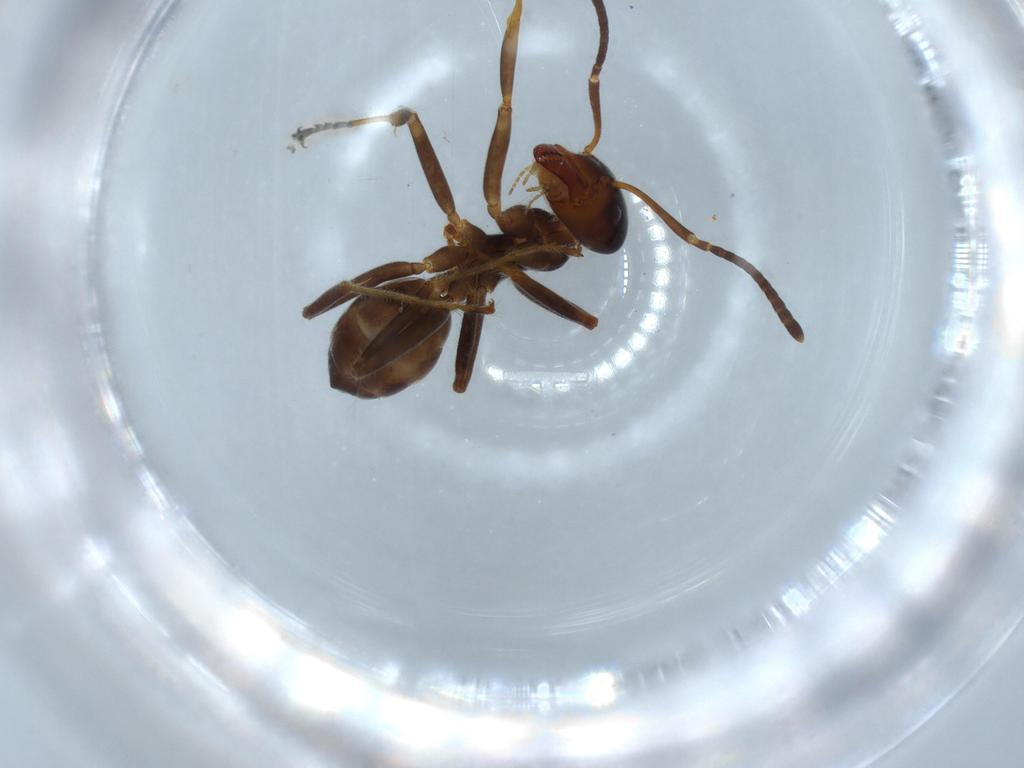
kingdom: Animalia
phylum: Arthropoda
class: Insecta
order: Hymenoptera
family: Formicidae
